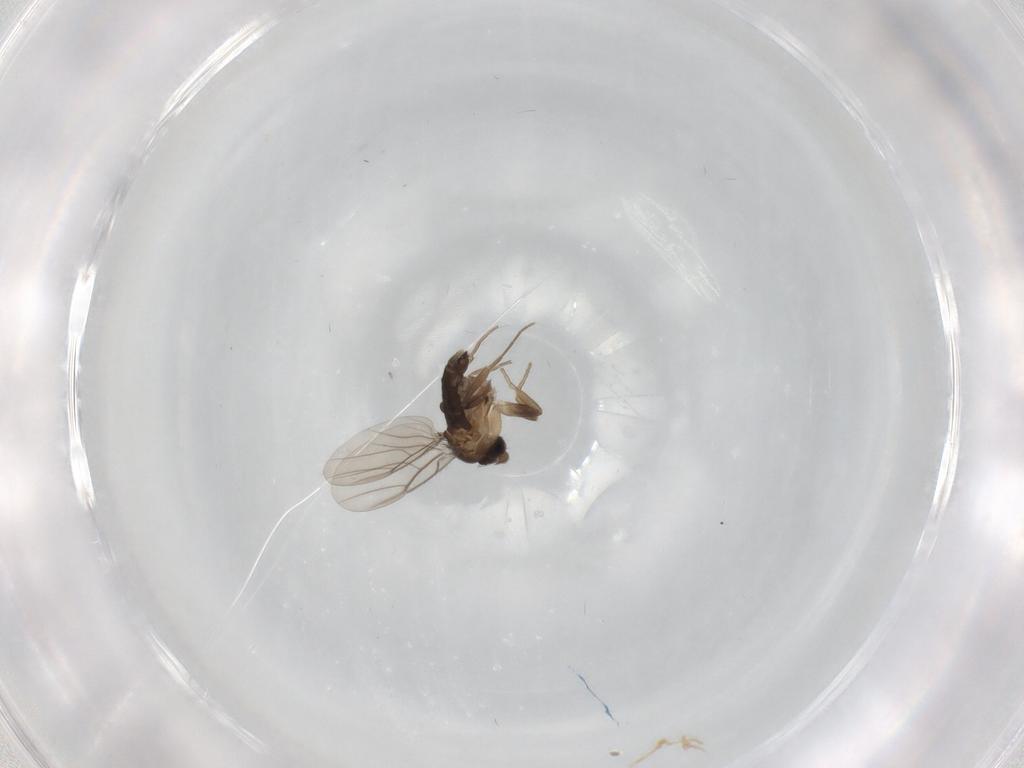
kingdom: Animalia
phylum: Arthropoda
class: Insecta
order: Diptera
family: Phoridae
